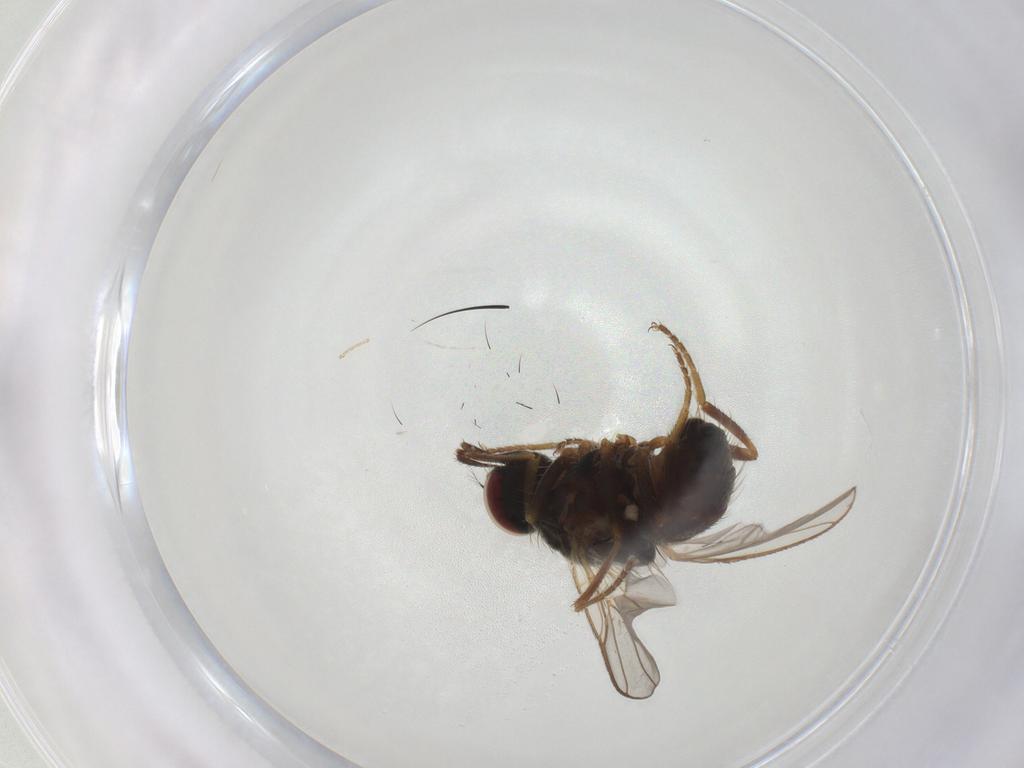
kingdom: Animalia
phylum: Arthropoda
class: Insecta
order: Diptera
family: Muscidae
